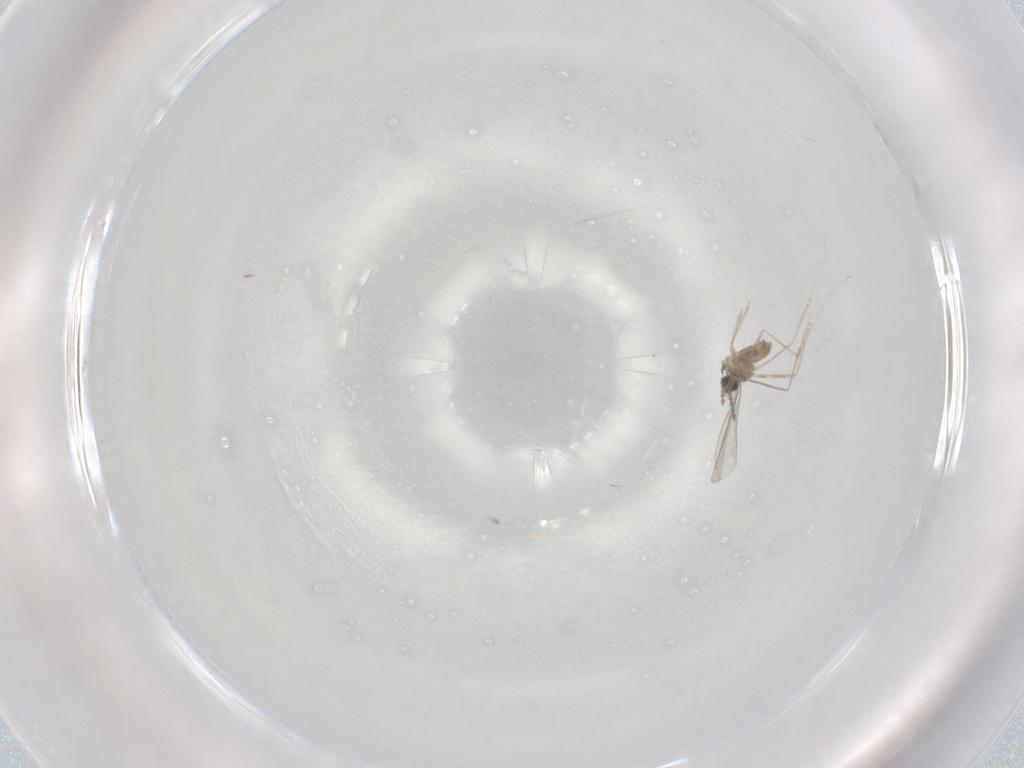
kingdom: Animalia
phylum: Arthropoda
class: Insecta
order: Diptera
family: Cecidomyiidae
